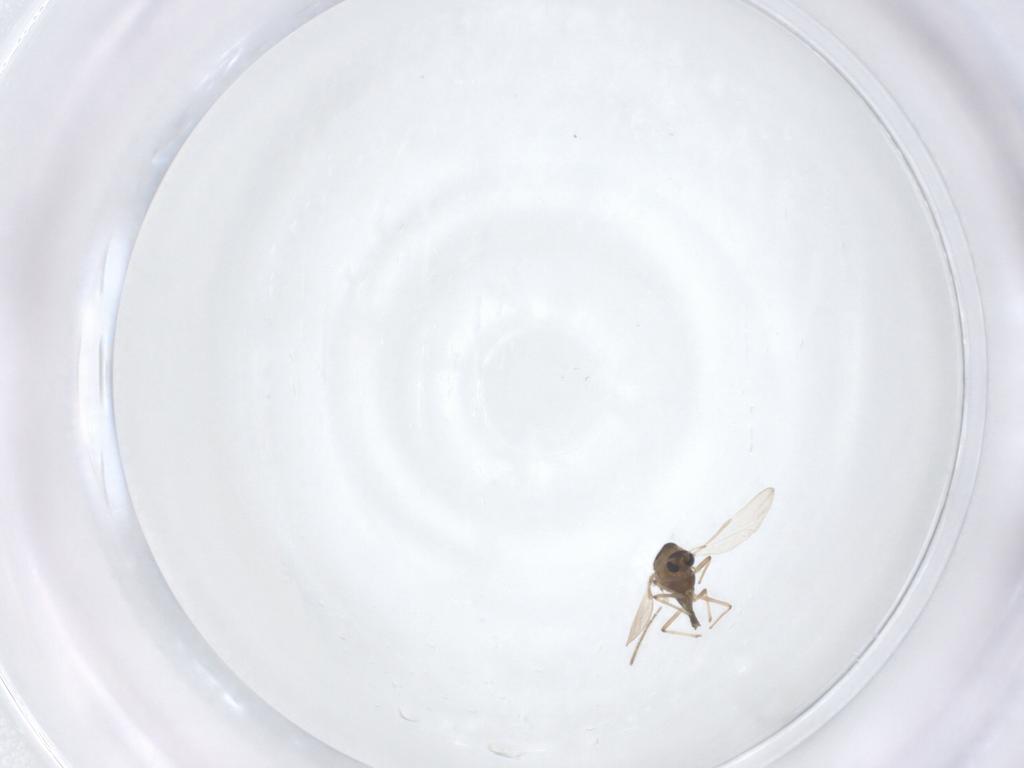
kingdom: Animalia
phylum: Arthropoda
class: Insecta
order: Diptera
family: Chironomidae
